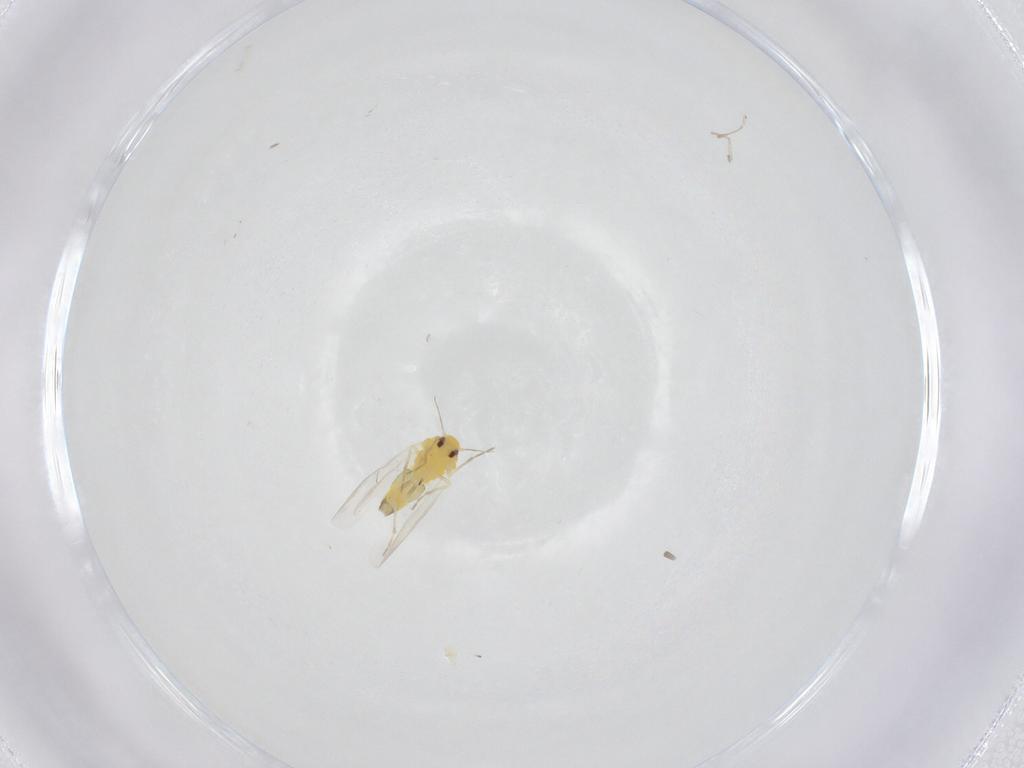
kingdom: Animalia
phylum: Arthropoda
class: Insecta
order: Hemiptera
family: Aleyrodidae
